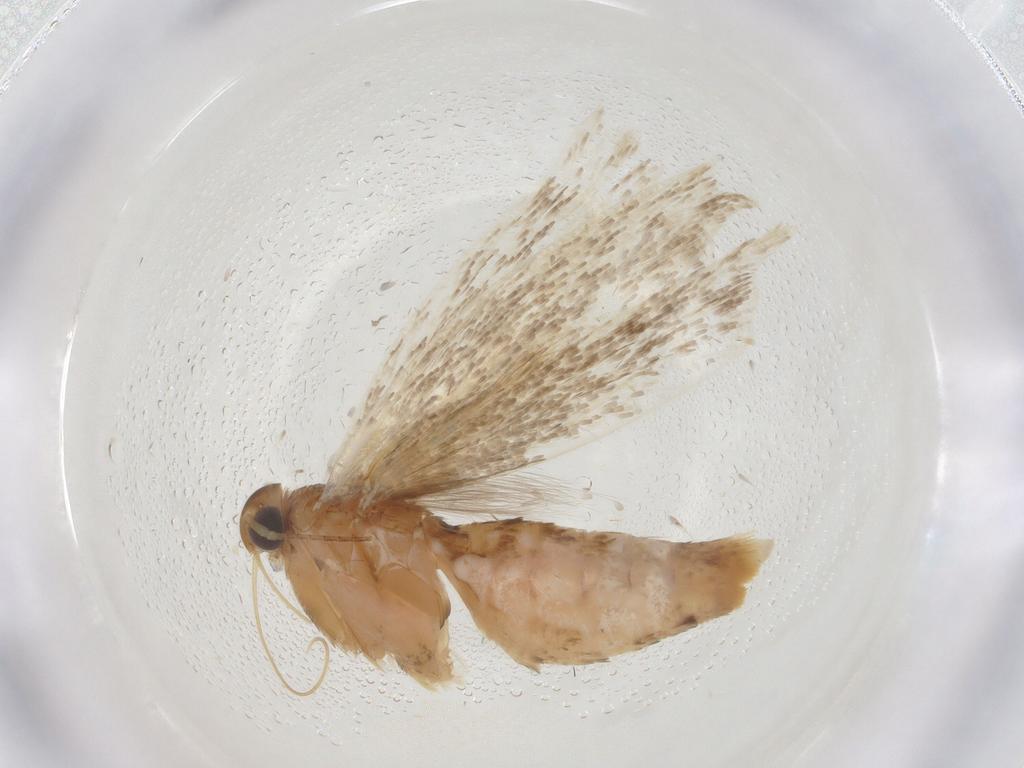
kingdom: Animalia
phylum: Arthropoda
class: Insecta
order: Lepidoptera
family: Gelechiidae
